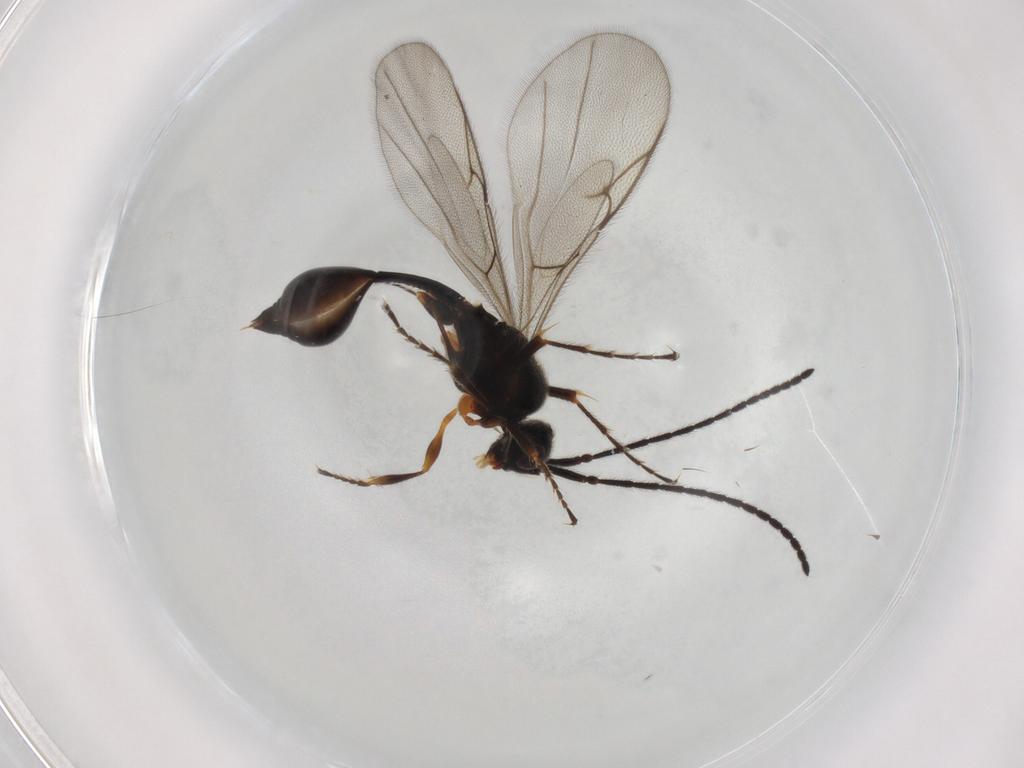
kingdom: Animalia
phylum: Arthropoda
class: Insecta
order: Hymenoptera
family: Diapriidae
